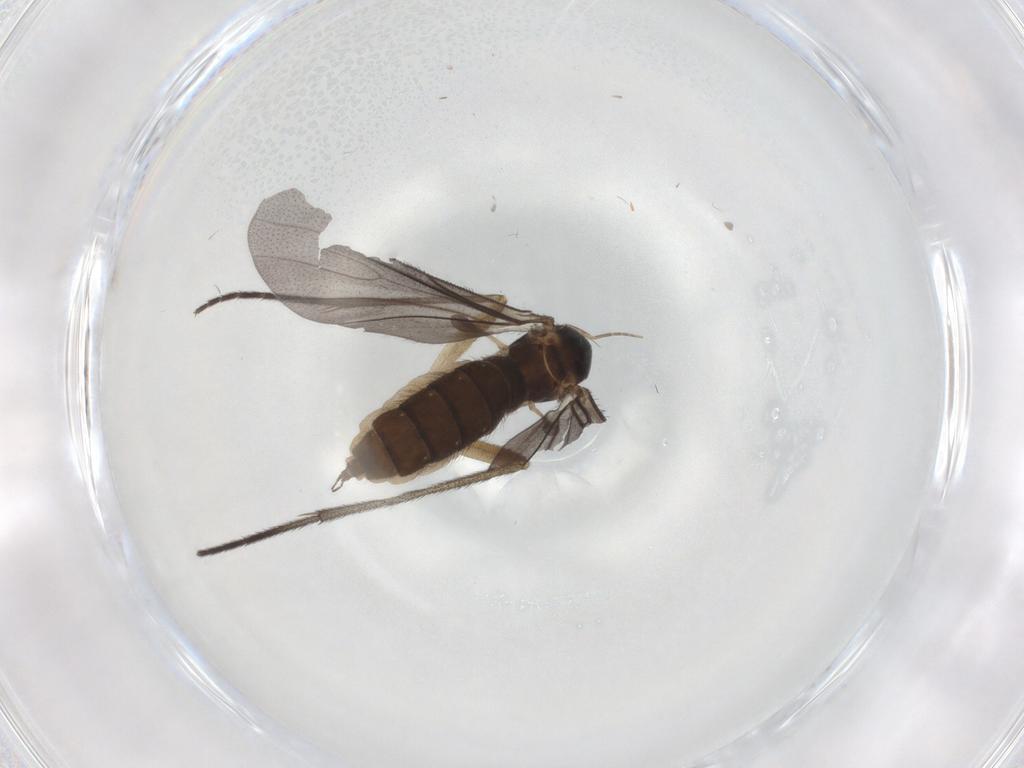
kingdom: Animalia
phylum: Arthropoda
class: Insecta
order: Diptera
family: Sciaridae
